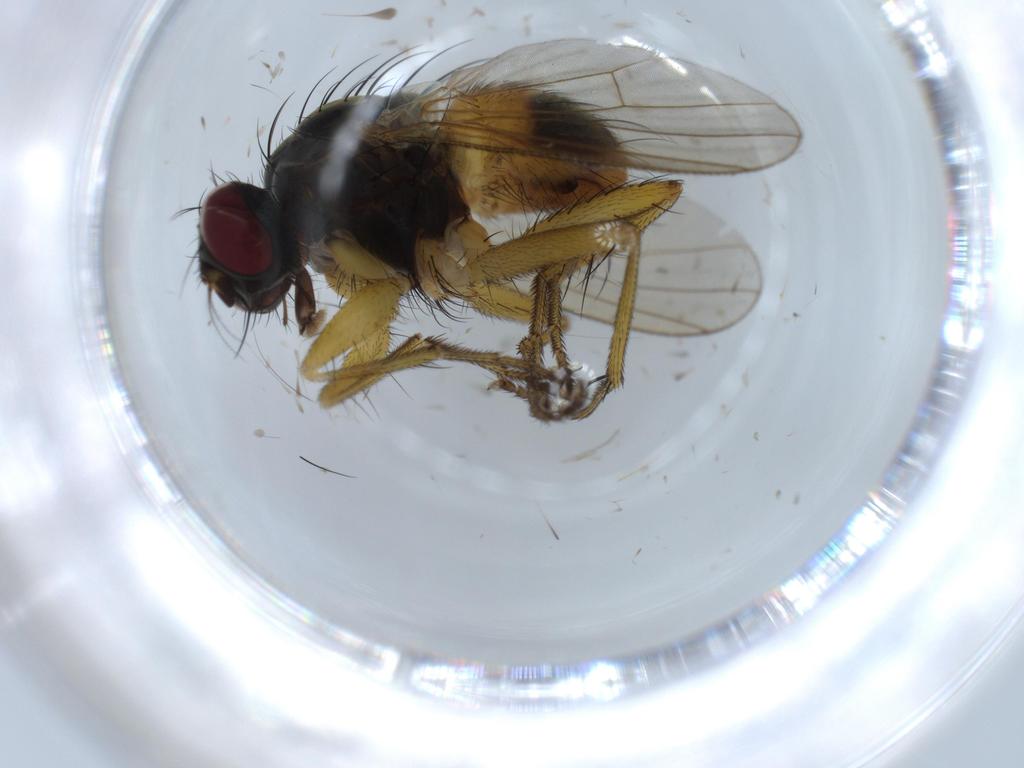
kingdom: Animalia
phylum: Arthropoda
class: Insecta
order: Diptera
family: Muscidae
